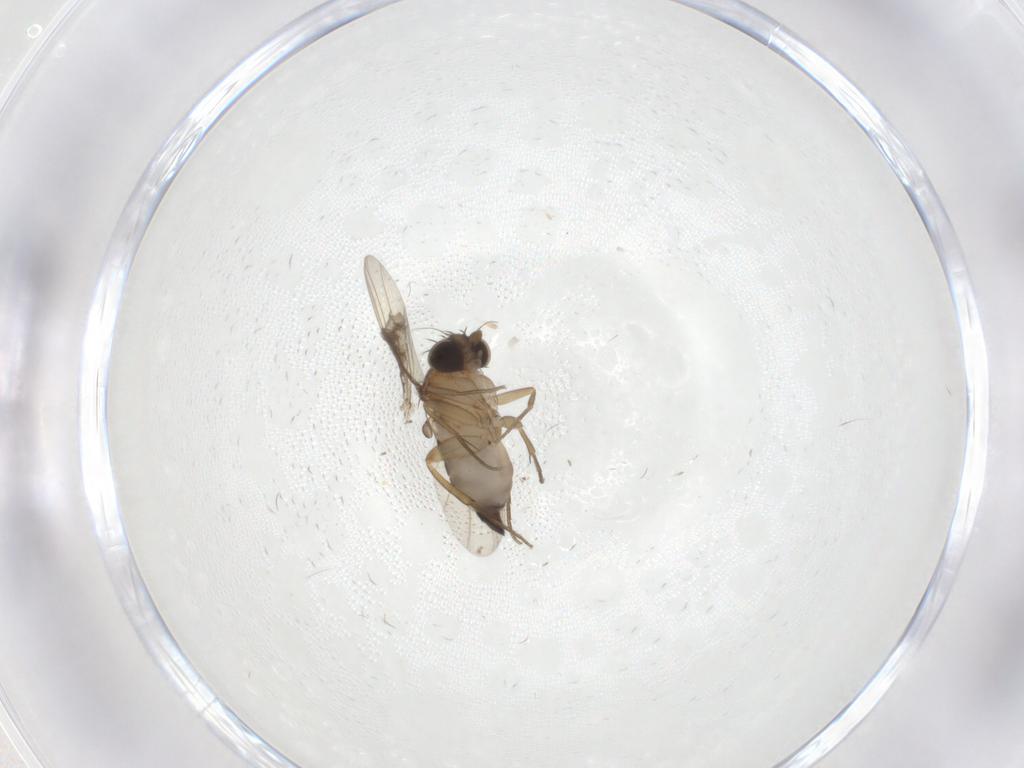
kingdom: Animalia
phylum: Arthropoda
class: Insecta
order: Diptera
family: Phoridae
